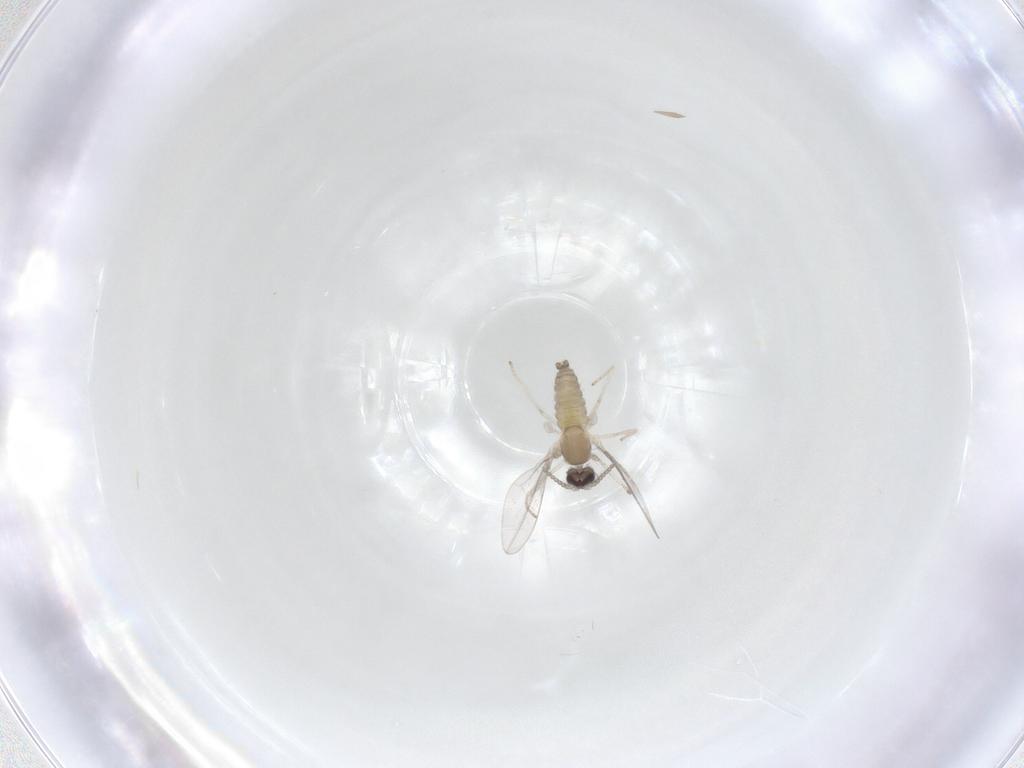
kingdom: Animalia
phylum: Arthropoda
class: Insecta
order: Diptera
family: Cecidomyiidae
